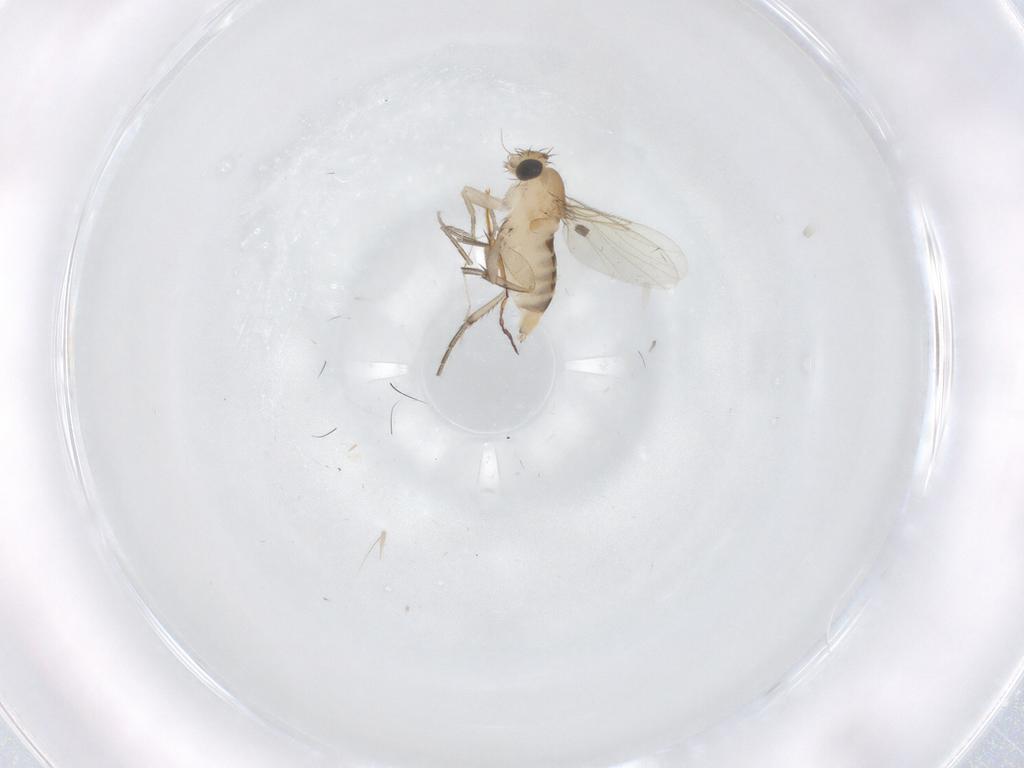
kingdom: Animalia
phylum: Arthropoda
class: Insecta
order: Diptera
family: Phoridae
